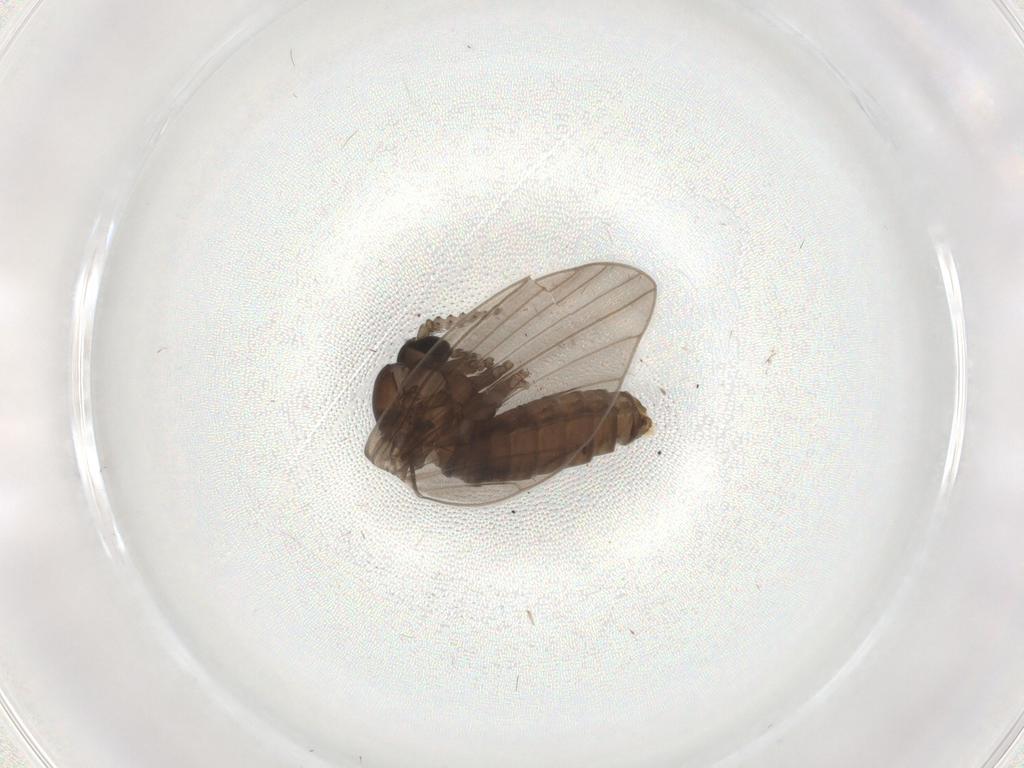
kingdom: Animalia
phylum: Arthropoda
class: Insecta
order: Diptera
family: Psychodidae
